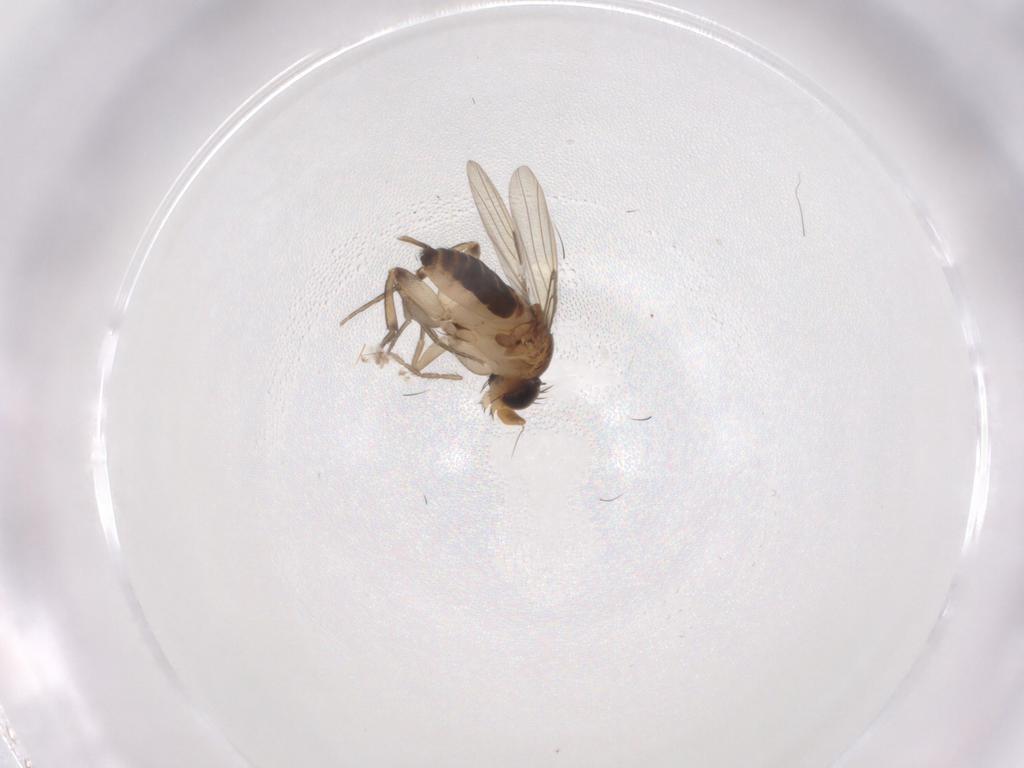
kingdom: Animalia
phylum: Arthropoda
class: Insecta
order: Diptera
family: Limoniidae
